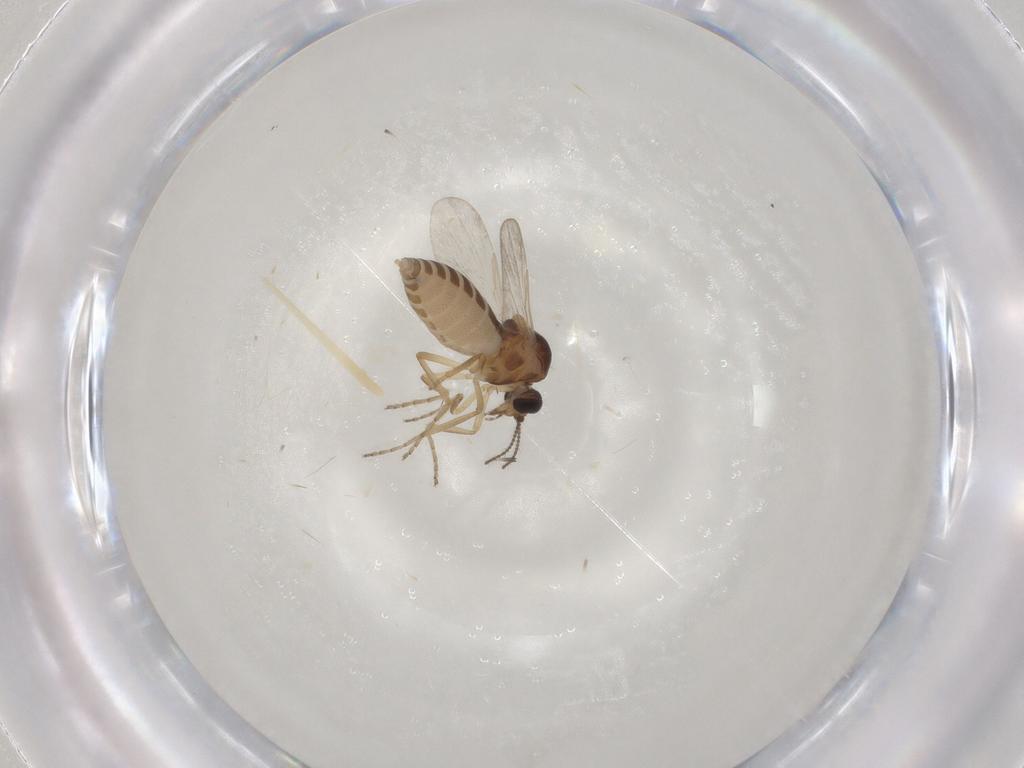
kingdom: Animalia
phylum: Arthropoda
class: Insecta
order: Diptera
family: Ceratopogonidae
